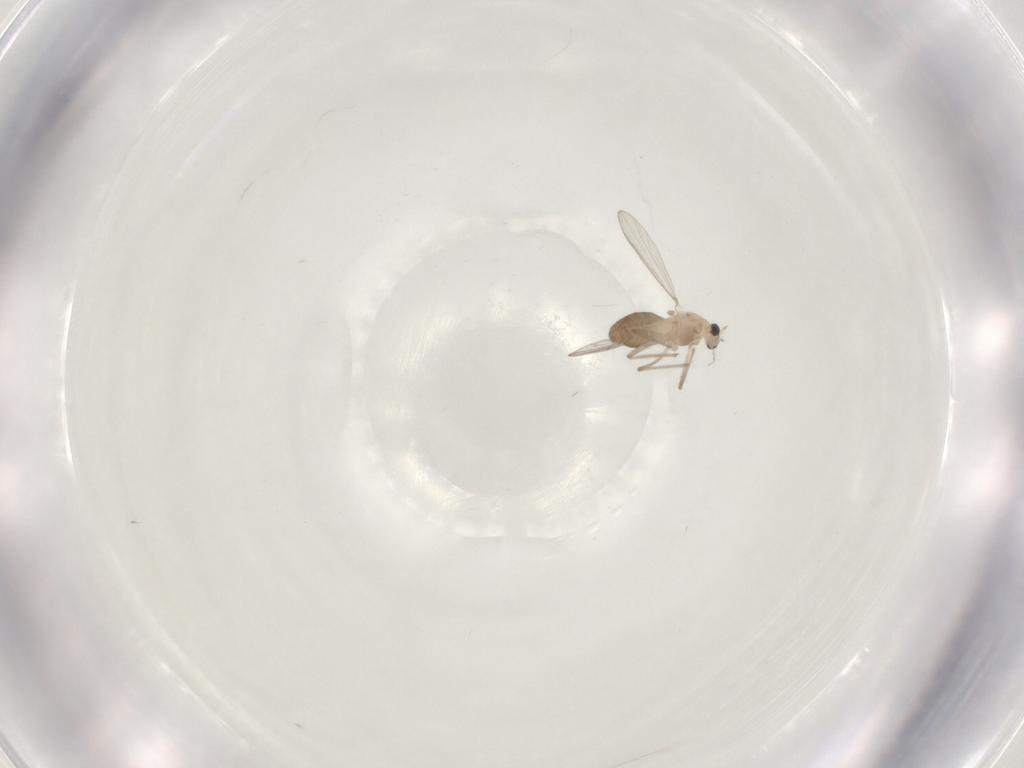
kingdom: Animalia
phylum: Arthropoda
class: Insecta
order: Diptera
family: Chironomidae
